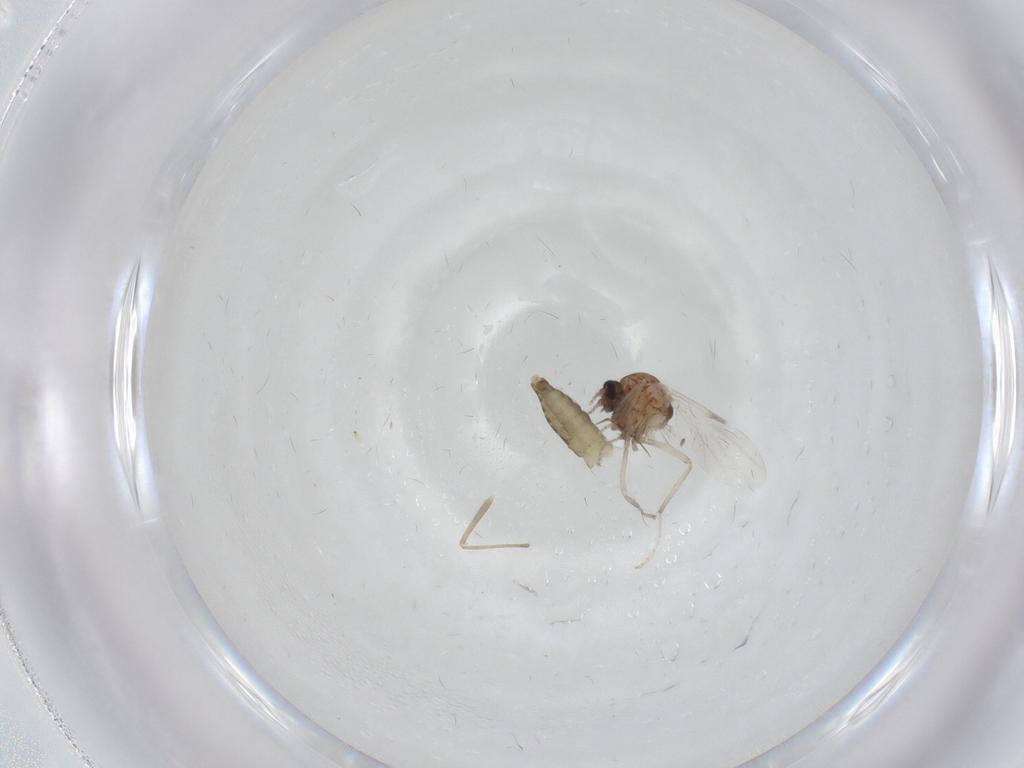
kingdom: Animalia
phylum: Arthropoda
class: Insecta
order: Diptera
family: Ceratopogonidae
